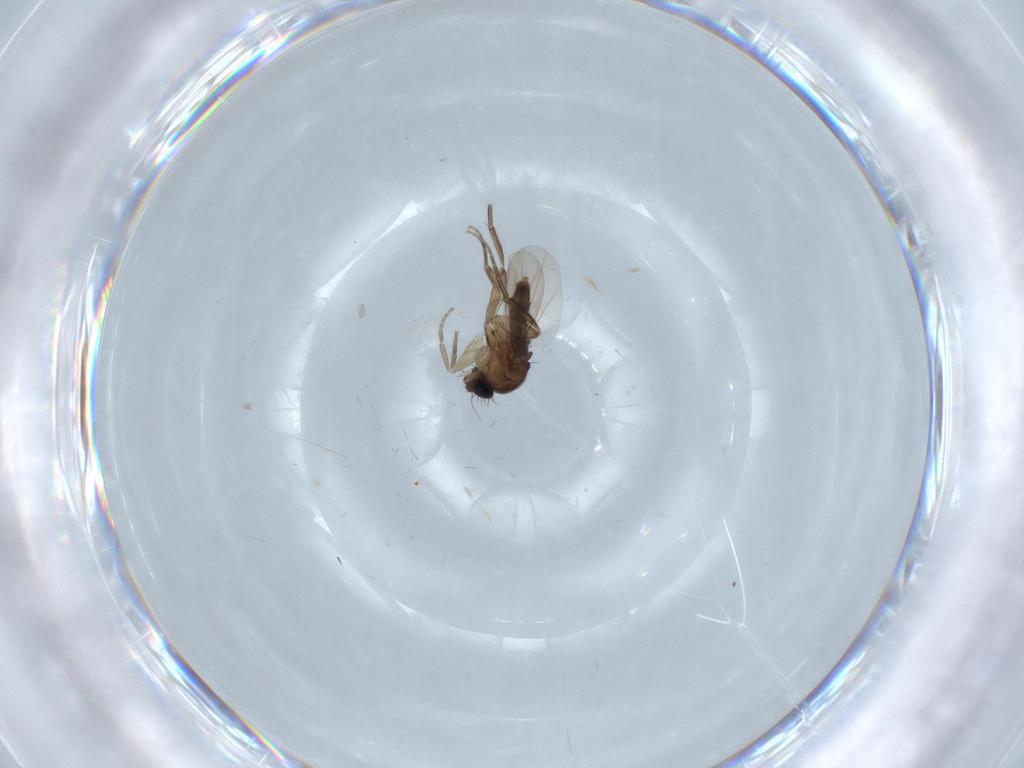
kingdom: Animalia
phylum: Arthropoda
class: Insecta
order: Diptera
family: Phoridae
